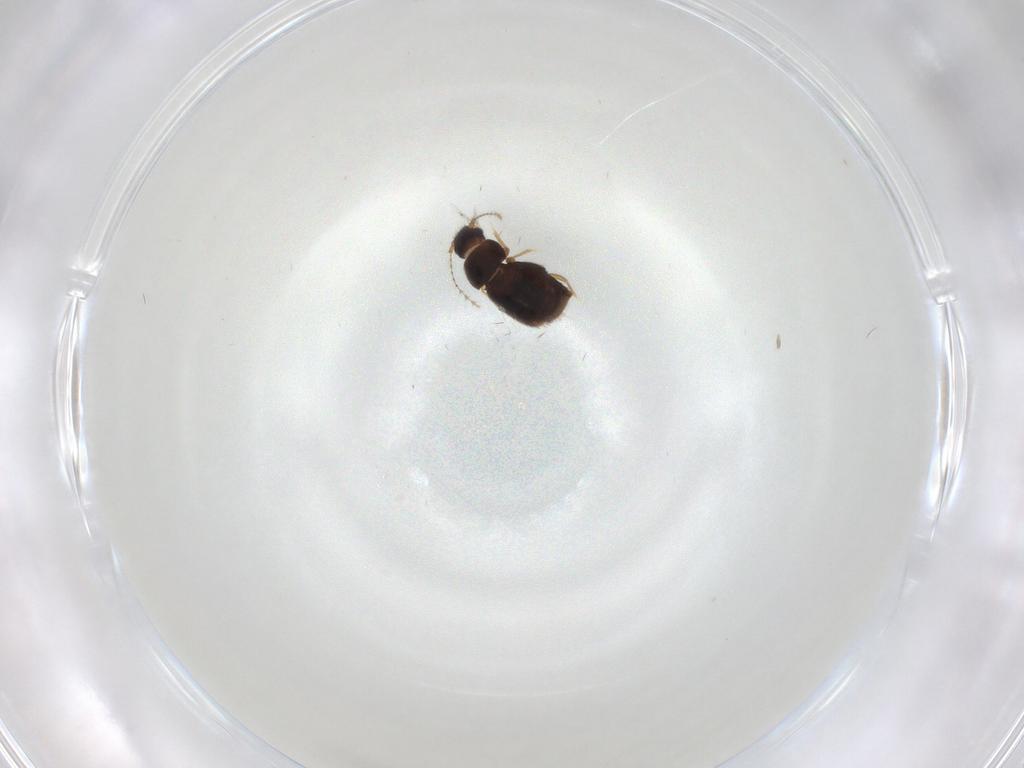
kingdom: Animalia
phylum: Arthropoda
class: Insecta
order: Coleoptera
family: Ptiliidae
